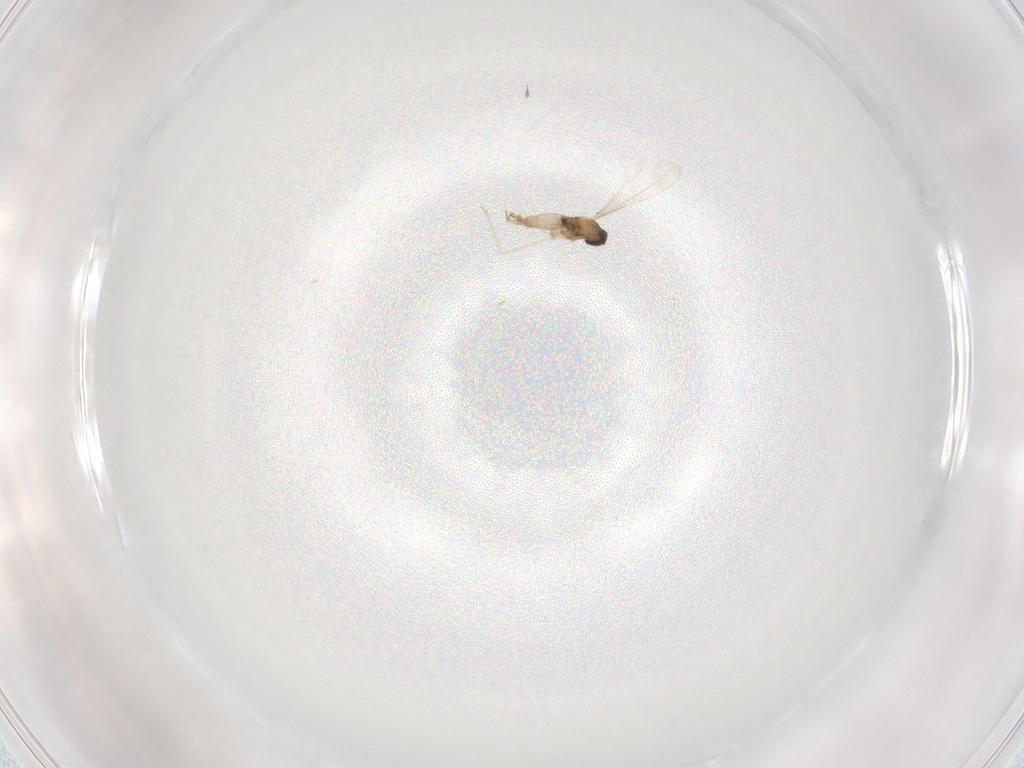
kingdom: Animalia
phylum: Arthropoda
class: Insecta
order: Diptera
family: Cecidomyiidae
